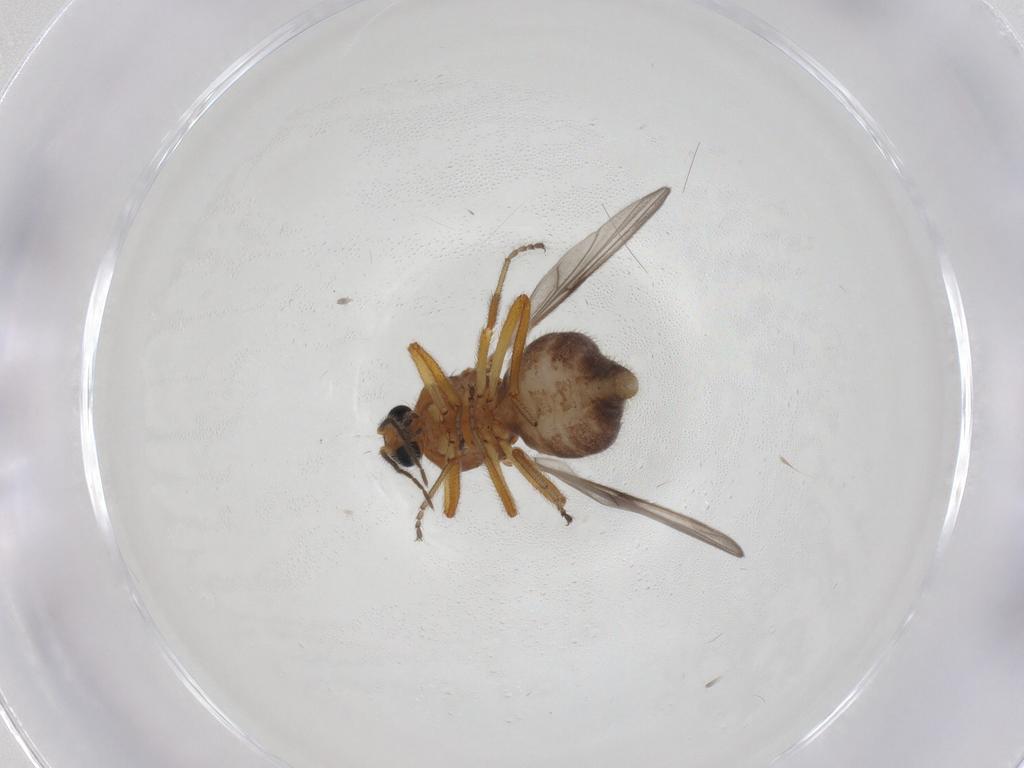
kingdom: Animalia
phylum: Arthropoda
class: Insecta
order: Diptera
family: Ceratopogonidae
